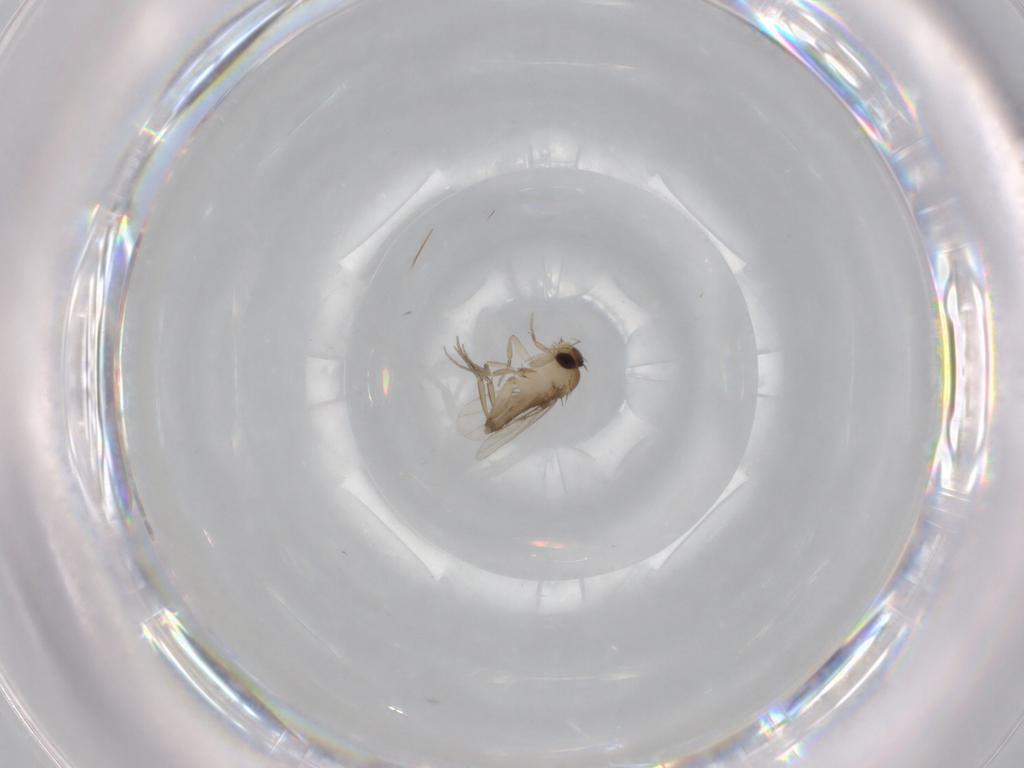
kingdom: Animalia
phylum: Arthropoda
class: Insecta
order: Diptera
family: Phoridae
